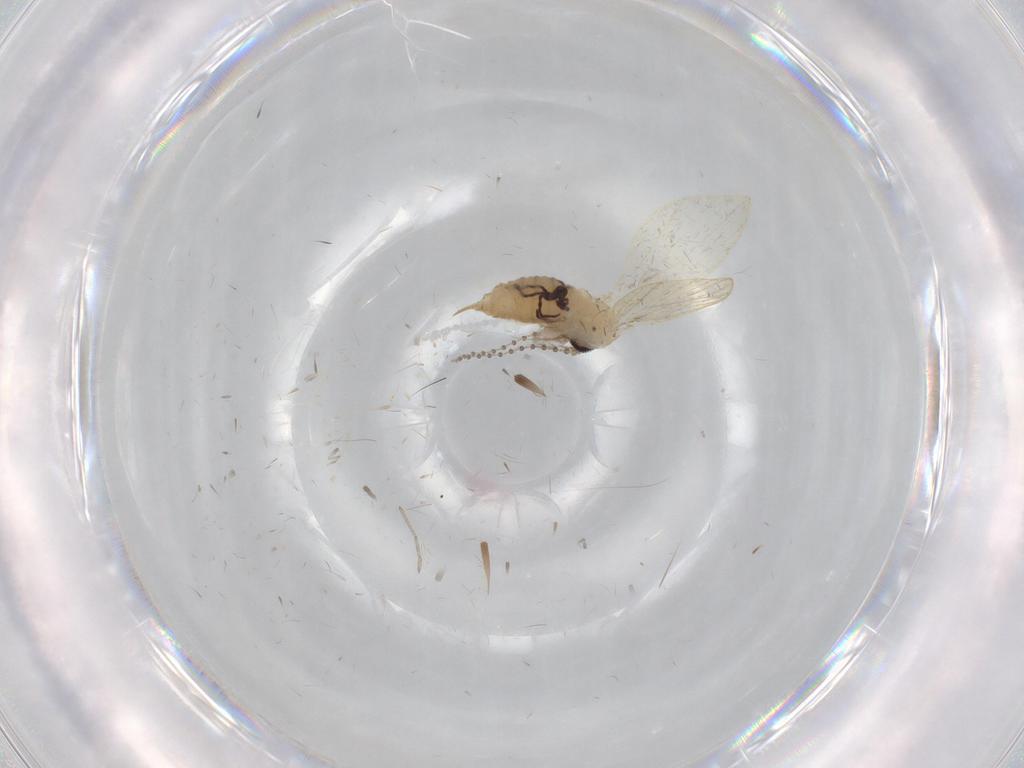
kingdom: Animalia
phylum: Arthropoda
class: Insecta
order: Diptera
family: Psychodidae
